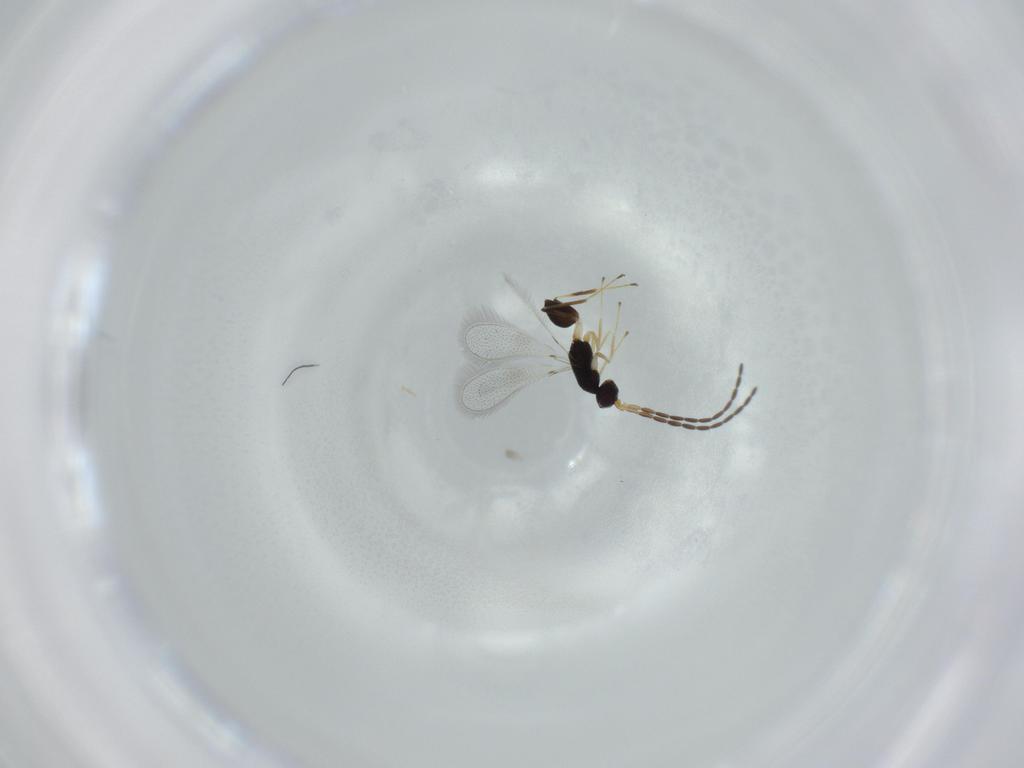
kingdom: Animalia
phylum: Arthropoda
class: Insecta
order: Hymenoptera
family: Mymaridae
